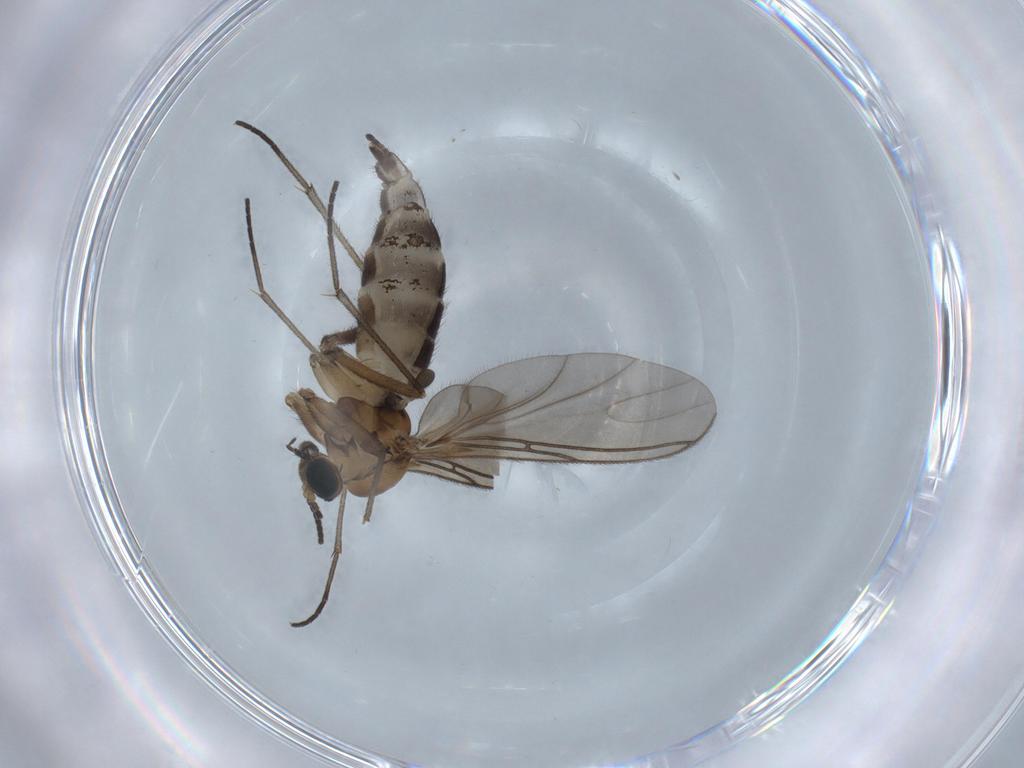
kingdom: Animalia
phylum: Arthropoda
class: Insecta
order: Diptera
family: Sciaridae
